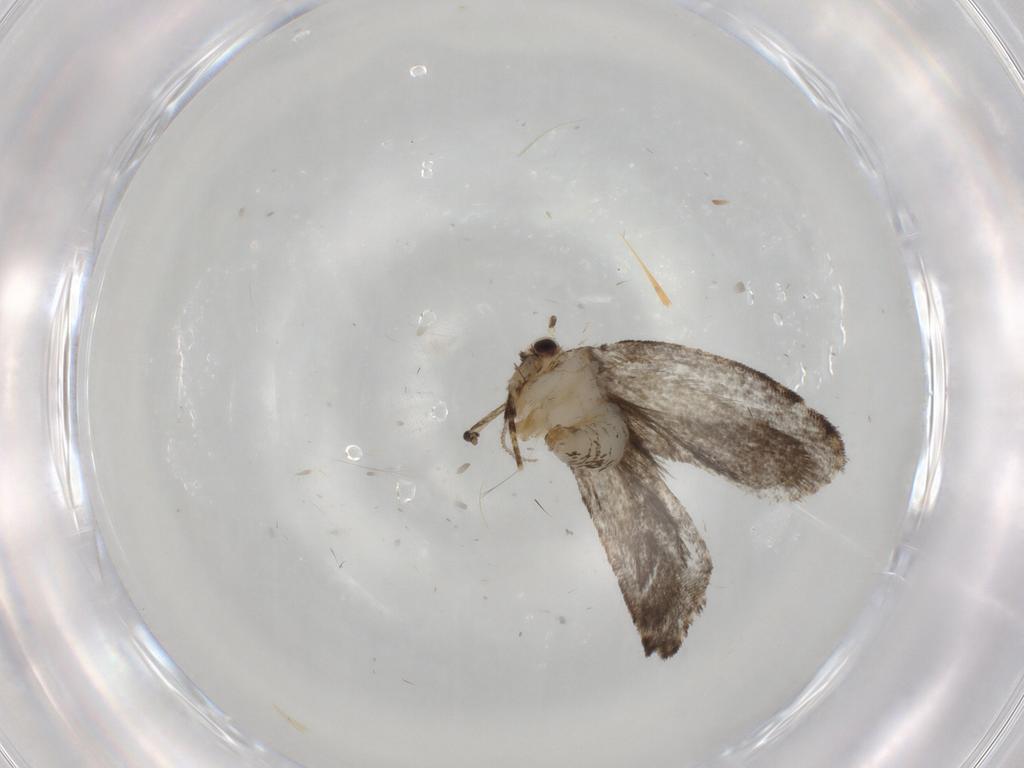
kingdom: Animalia
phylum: Arthropoda
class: Insecta
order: Lepidoptera
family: Psychidae
